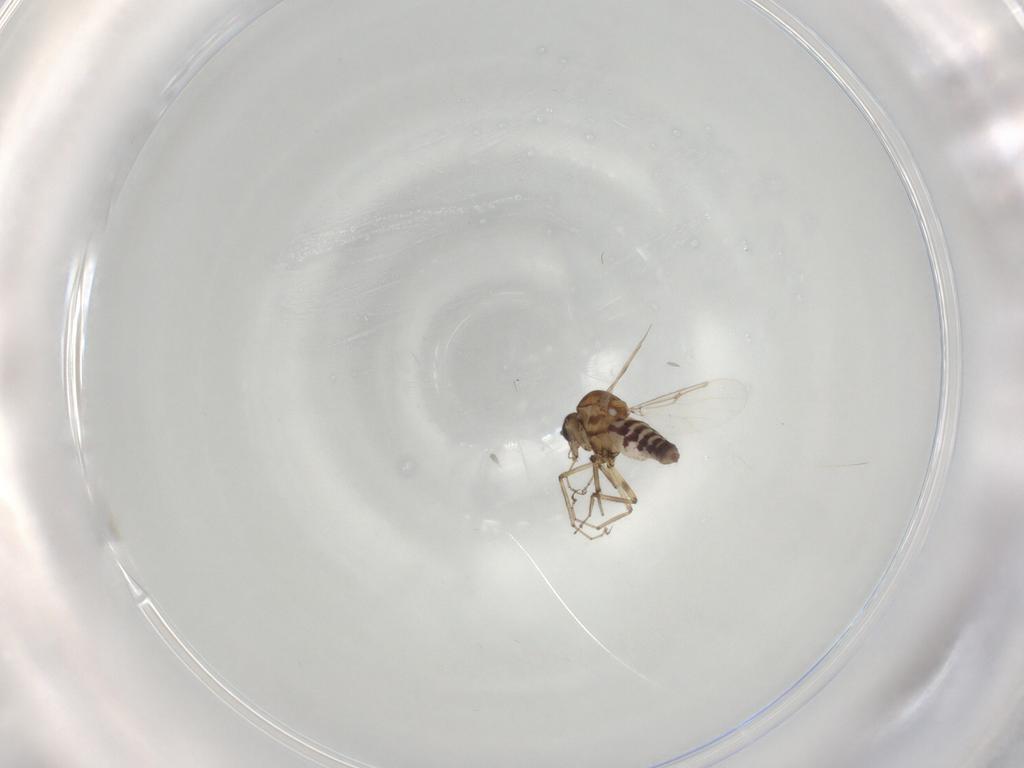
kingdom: Animalia
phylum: Arthropoda
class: Insecta
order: Diptera
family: Ceratopogonidae
